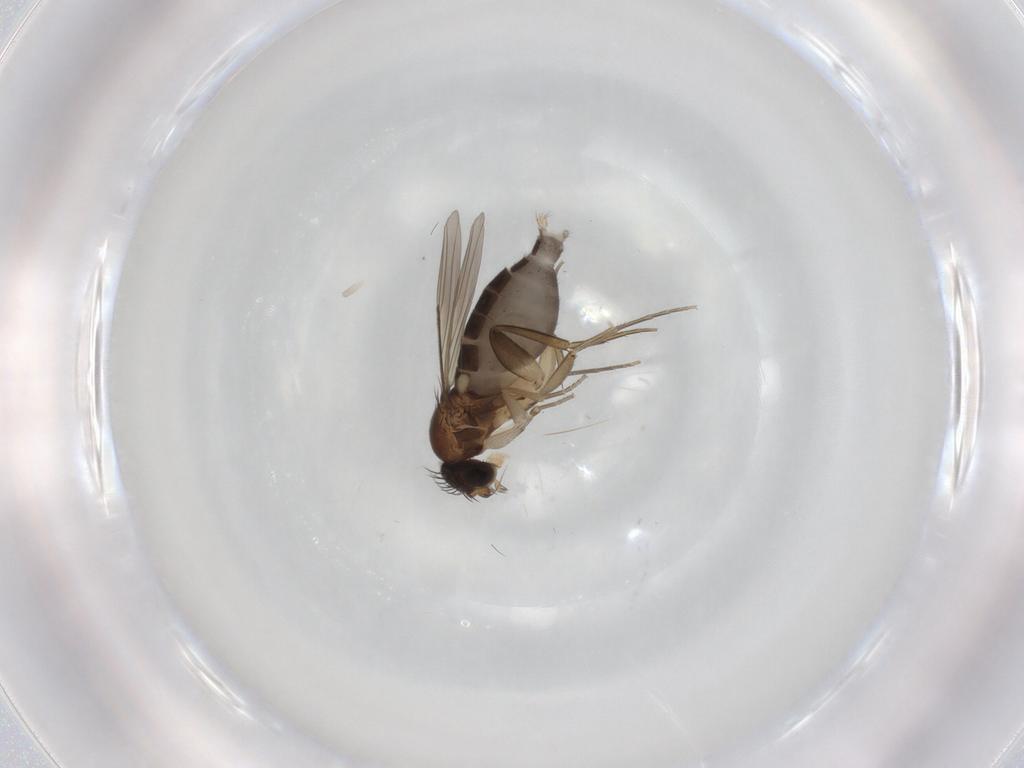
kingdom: Animalia
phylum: Arthropoda
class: Insecta
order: Diptera
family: Phoridae
